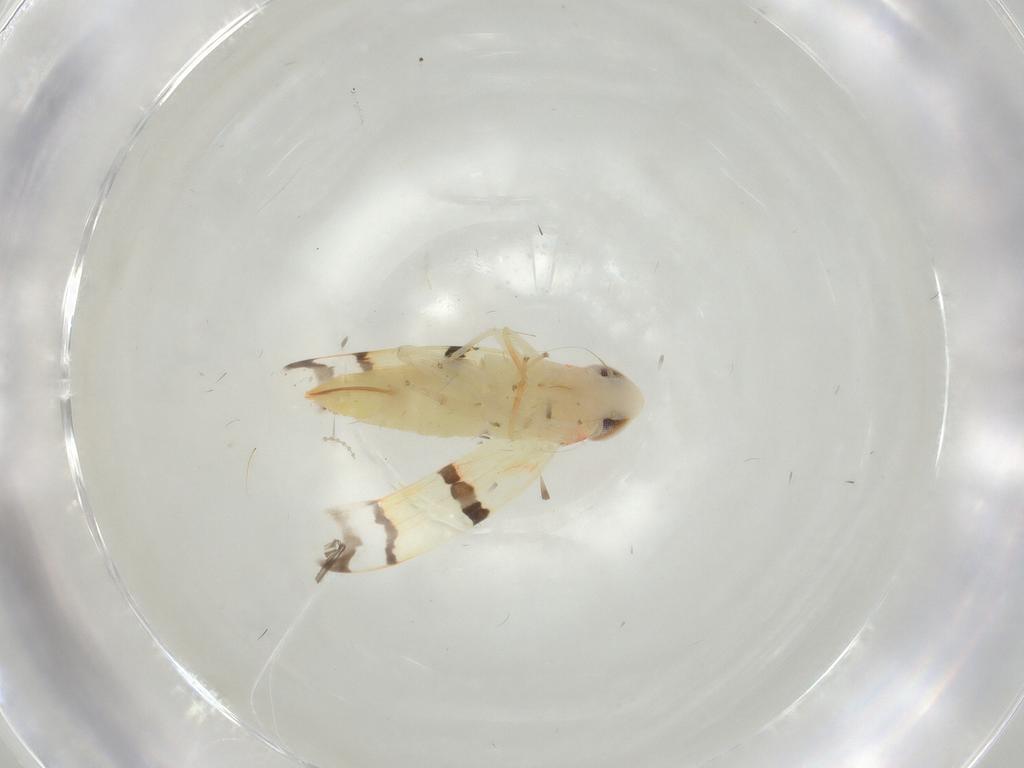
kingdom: Animalia
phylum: Arthropoda
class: Insecta
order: Hemiptera
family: Cicadellidae
